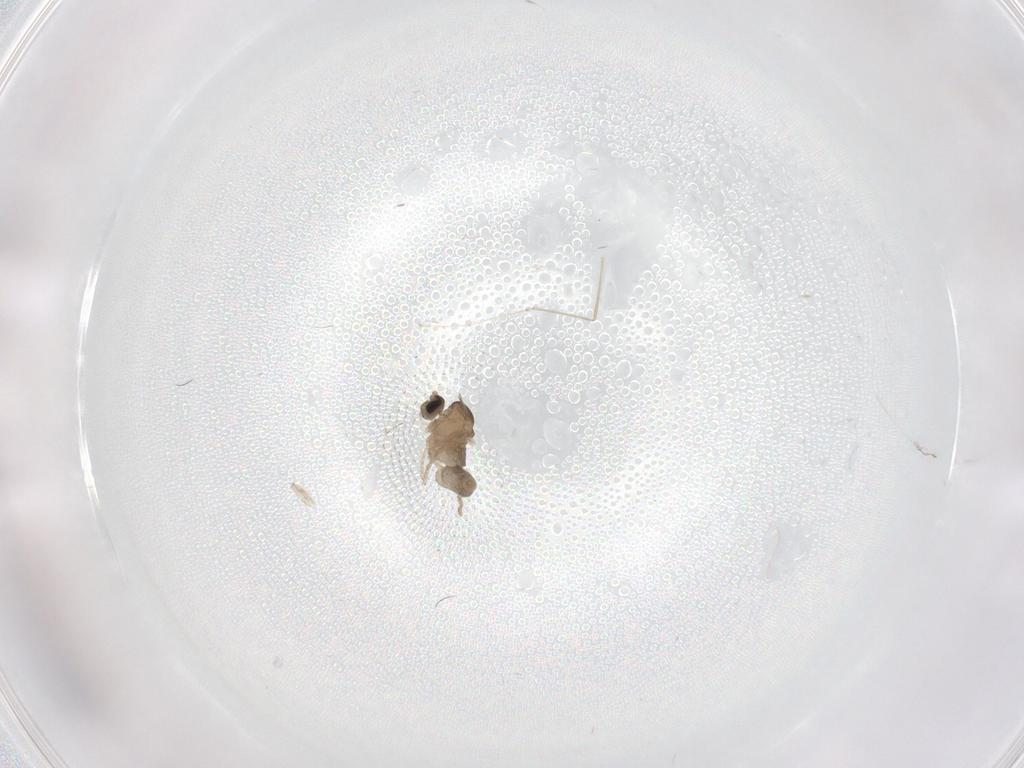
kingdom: Animalia
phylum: Arthropoda
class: Insecta
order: Diptera
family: Cecidomyiidae
